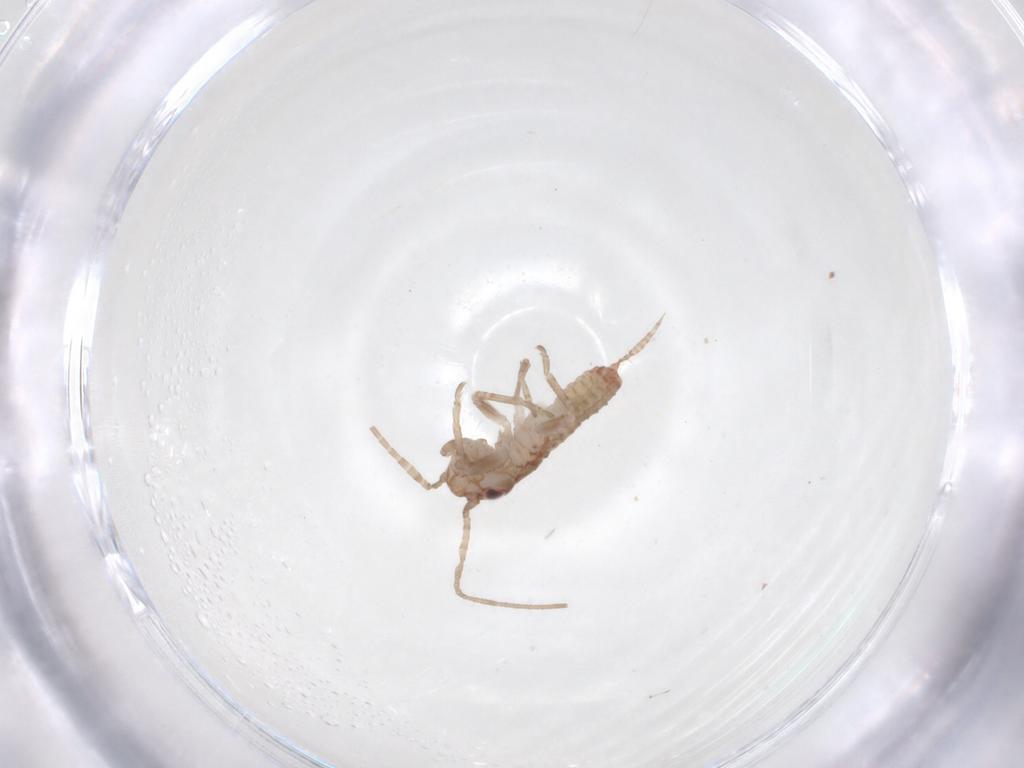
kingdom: Animalia
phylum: Arthropoda
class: Insecta
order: Orthoptera
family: Mogoplistidae
